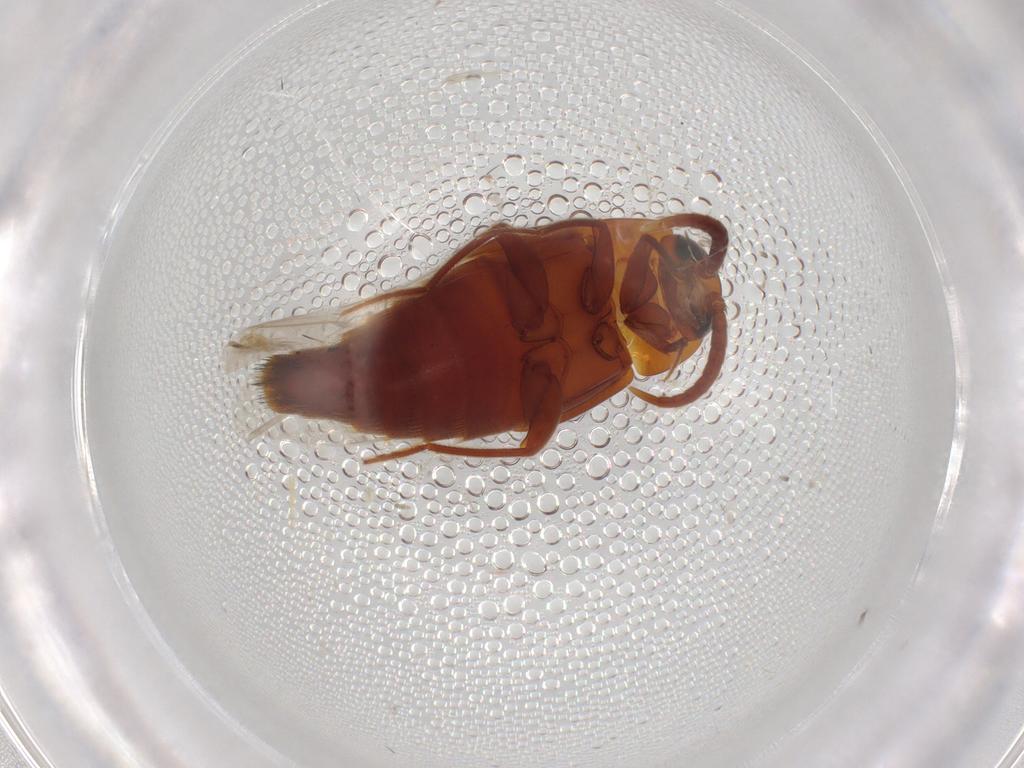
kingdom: Animalia
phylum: Arthropoda
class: Insecta
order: Coleoptera
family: Staphylinidae
